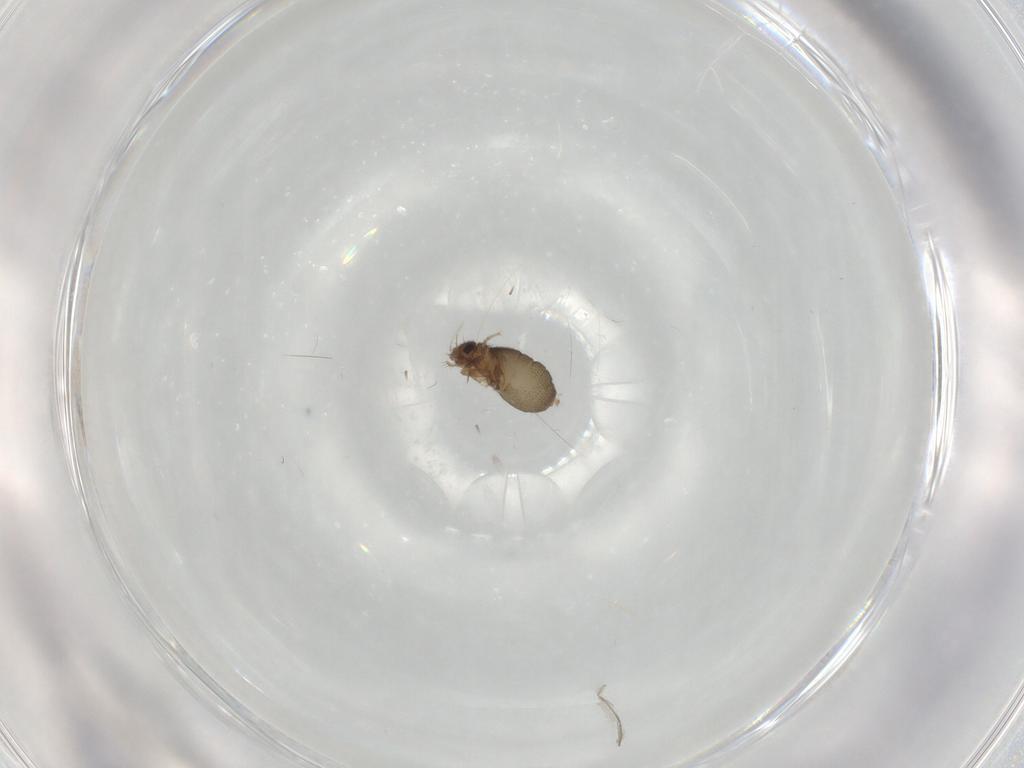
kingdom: Animalia
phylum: Arthropoda
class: Insecta
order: Diptera
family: Phoridae
